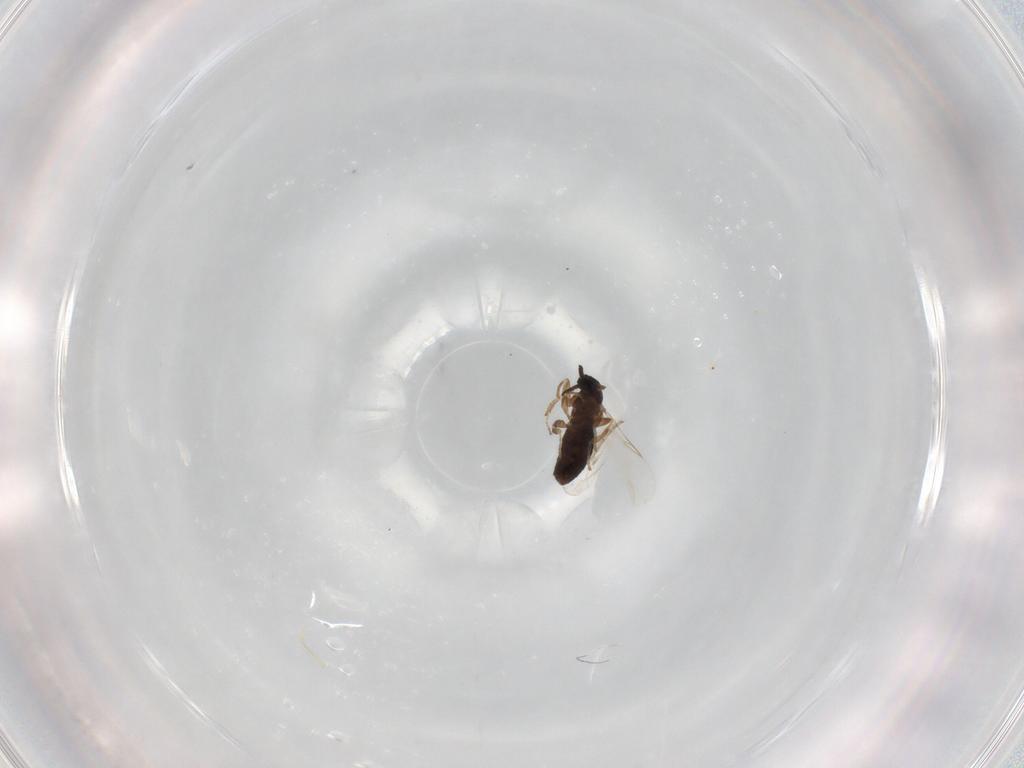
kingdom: Animalia
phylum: Arthropoda
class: Insecta
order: Diptera
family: Scatopsidae
